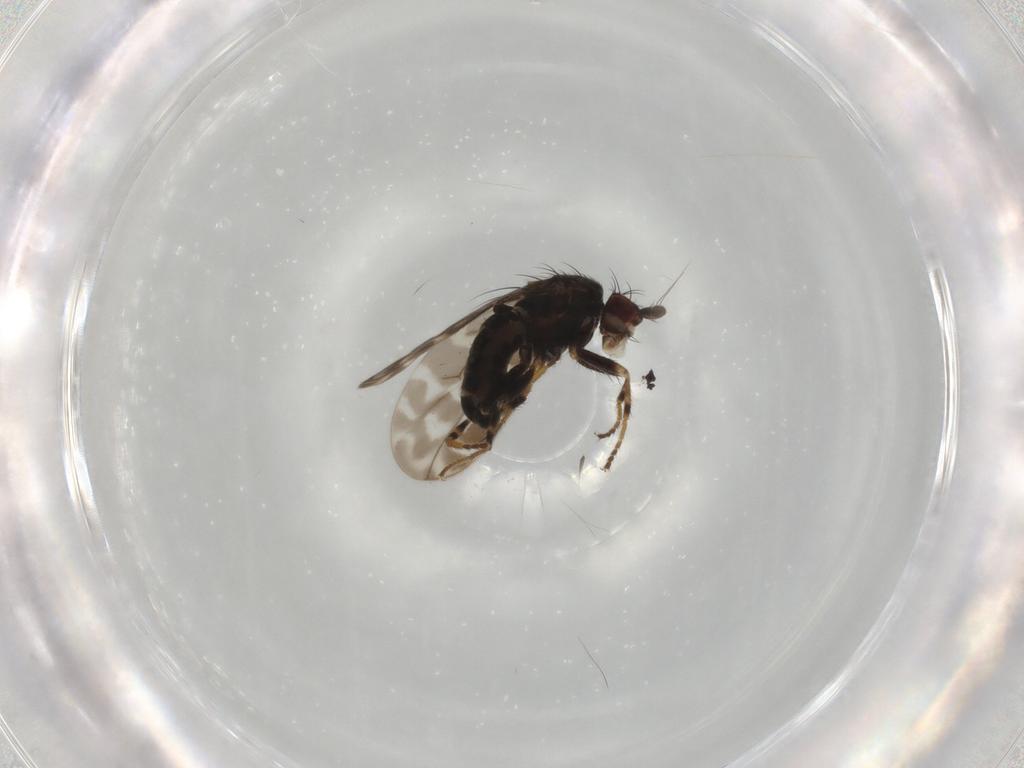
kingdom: Animalia
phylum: Arthropoda
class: Insecta
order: Diptera
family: Sphaeroceridae
